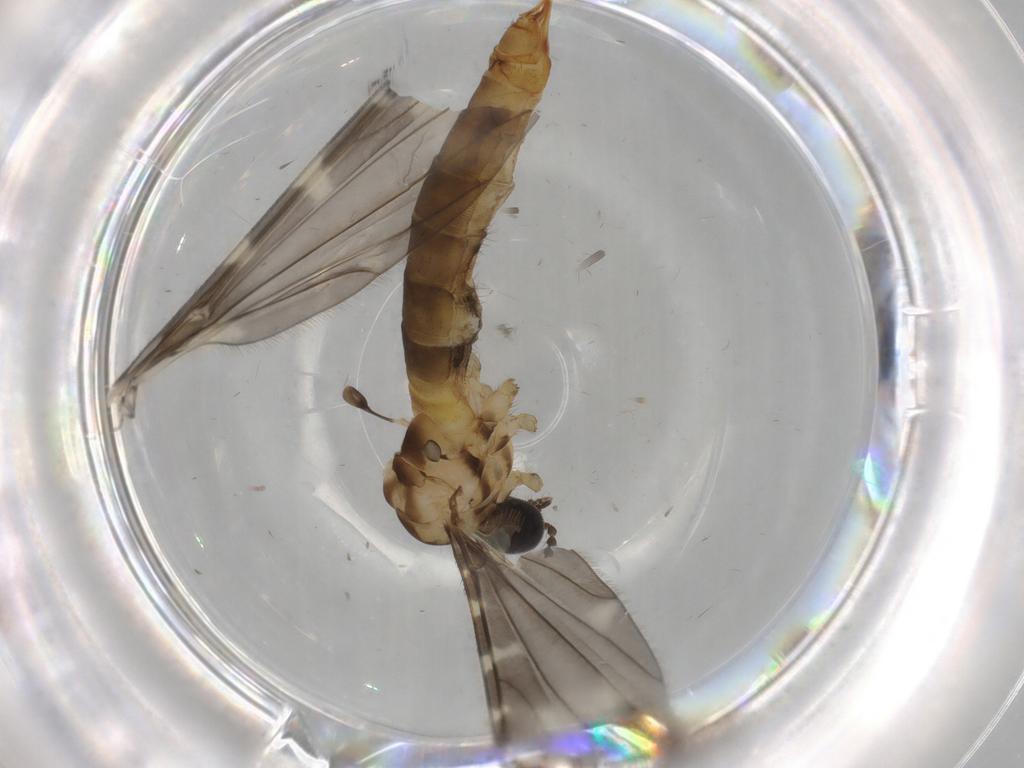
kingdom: Animalia
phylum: Arthropoda
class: Insecta
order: Diptera
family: Sciaridae
